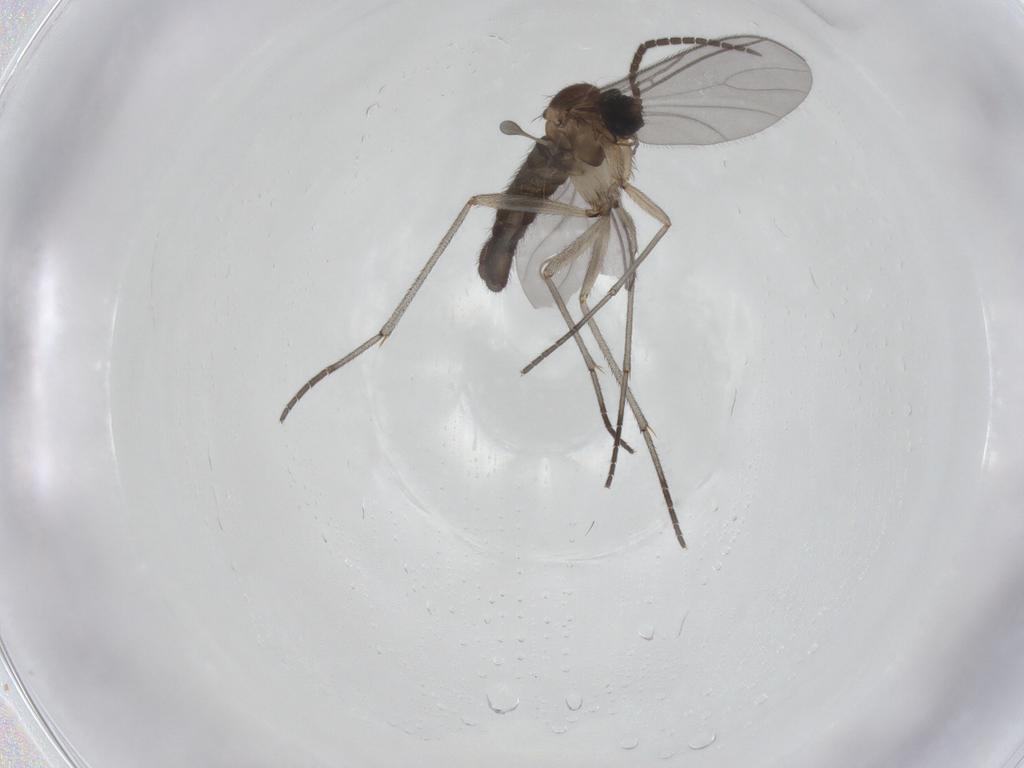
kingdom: Animalia
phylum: Arthropoda
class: Insecta
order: Diptera
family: Sciaridae
